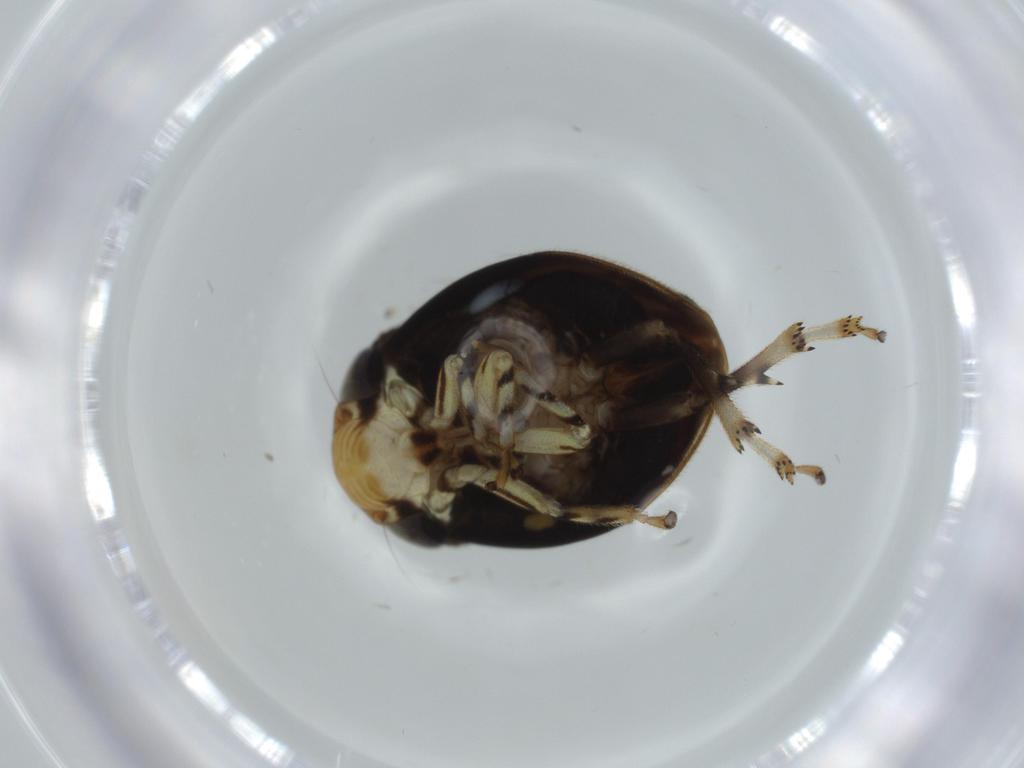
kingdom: Animalia
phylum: Arthropoda
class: Insecta
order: Hemiptera
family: Clastopteridae
